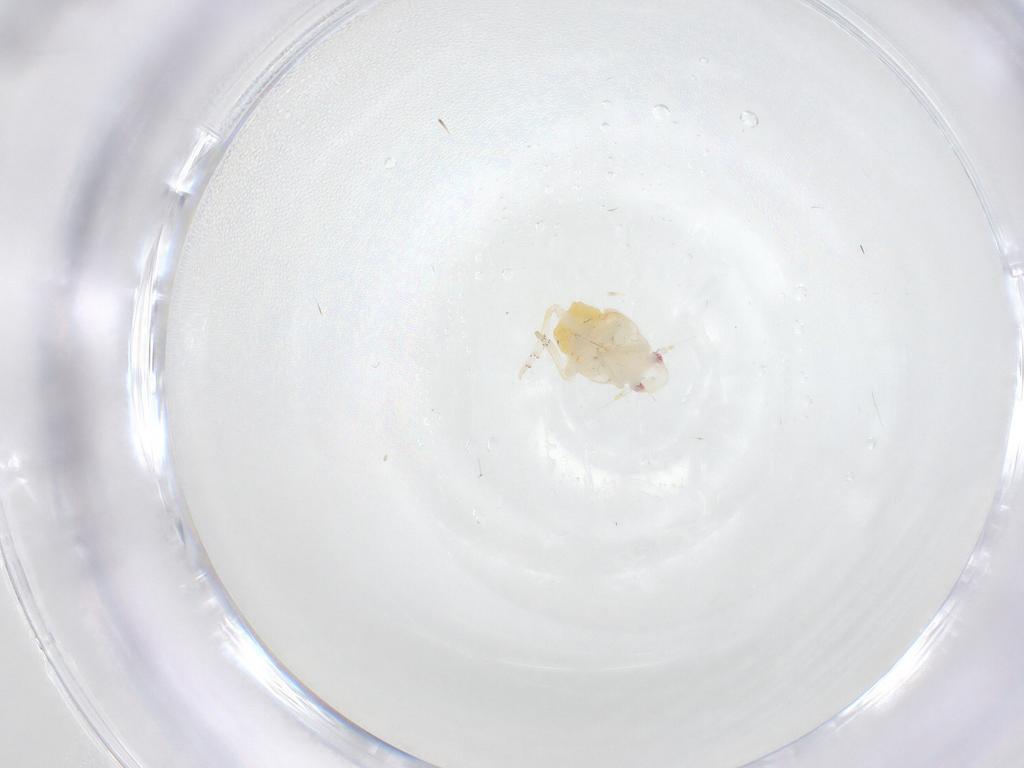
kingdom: Animalia
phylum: Arthropoda
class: Insecta
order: Hemiptera
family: Fulgoroidea_incertae_sedis
